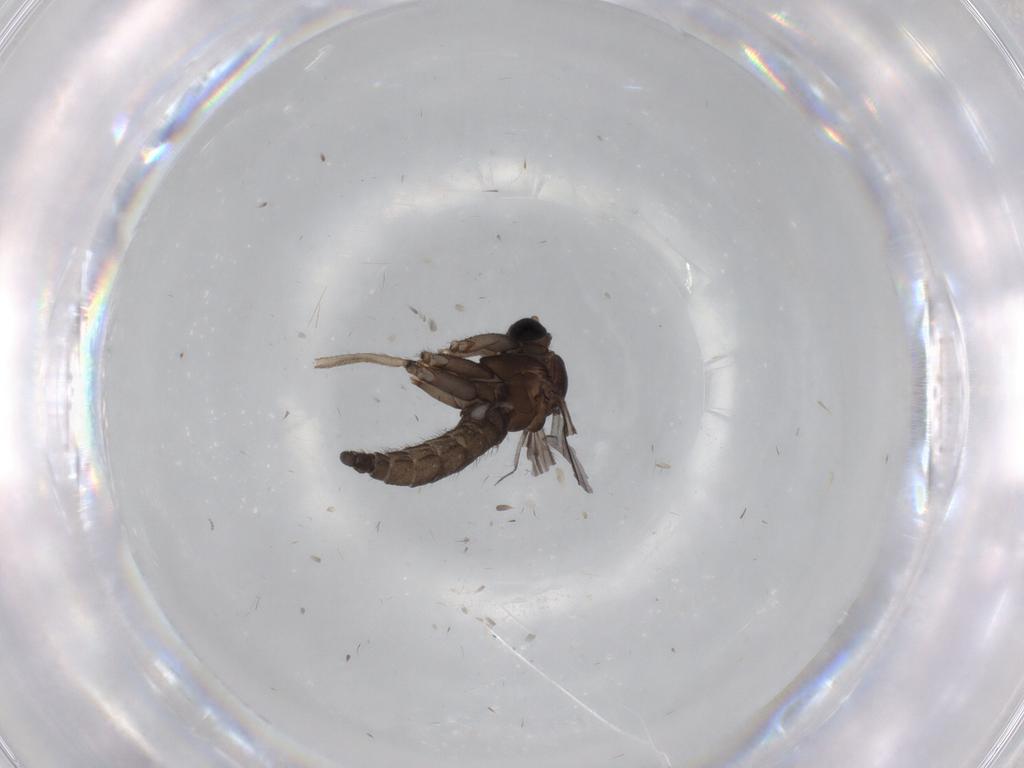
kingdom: Animalia
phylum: Arthropoda
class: Insecta
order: Diptera
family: Sciaridae
